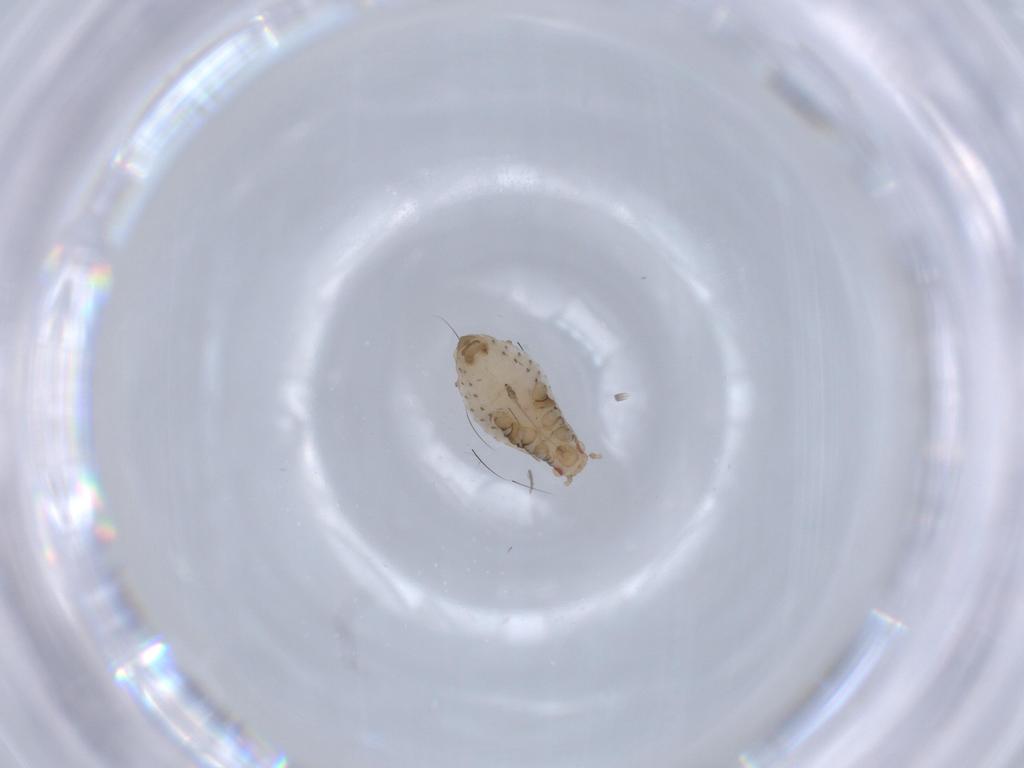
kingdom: Animalia
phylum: Arthropoda
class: Insecta
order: Hemiptera
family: Aphididae
